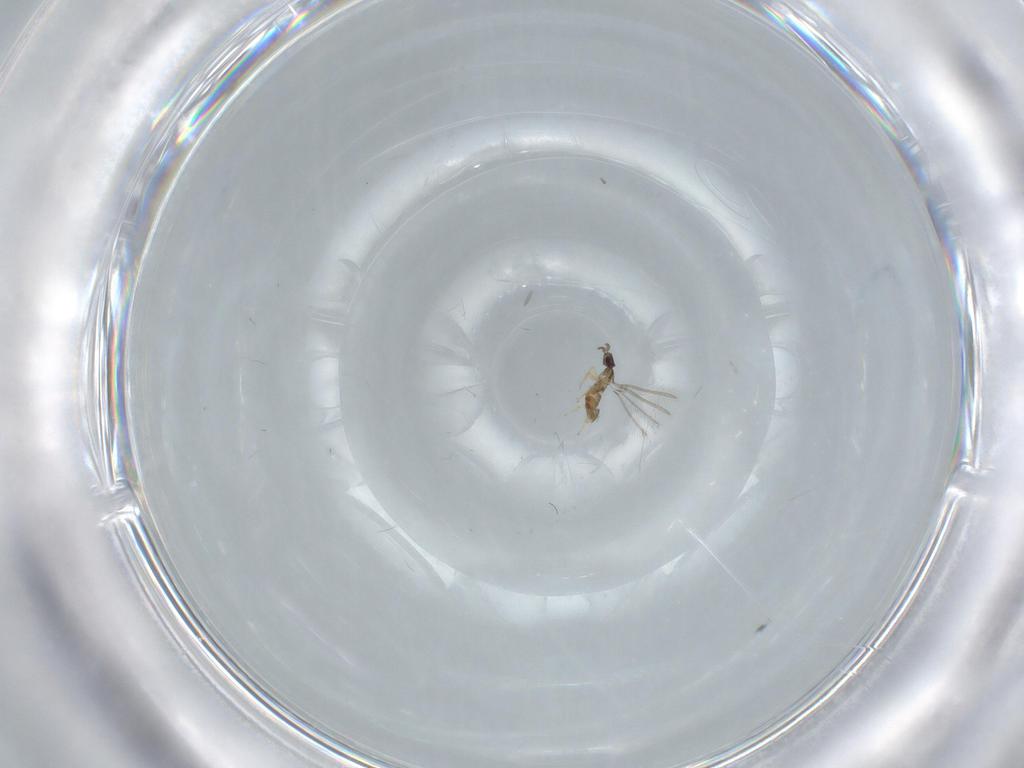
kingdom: Animalia
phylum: Arthropoda
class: Insecta
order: Hymenoptera
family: Mymaridae
